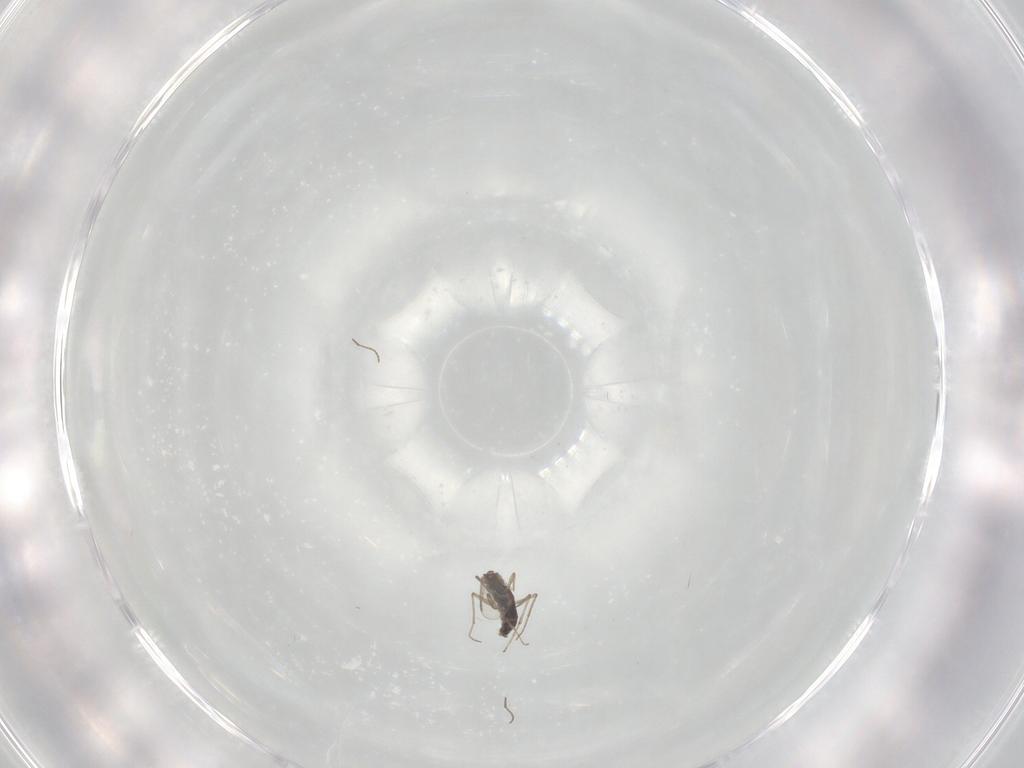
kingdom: Animalia
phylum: Arthropoda
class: Insecta
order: Diptera
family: Chironomidae
